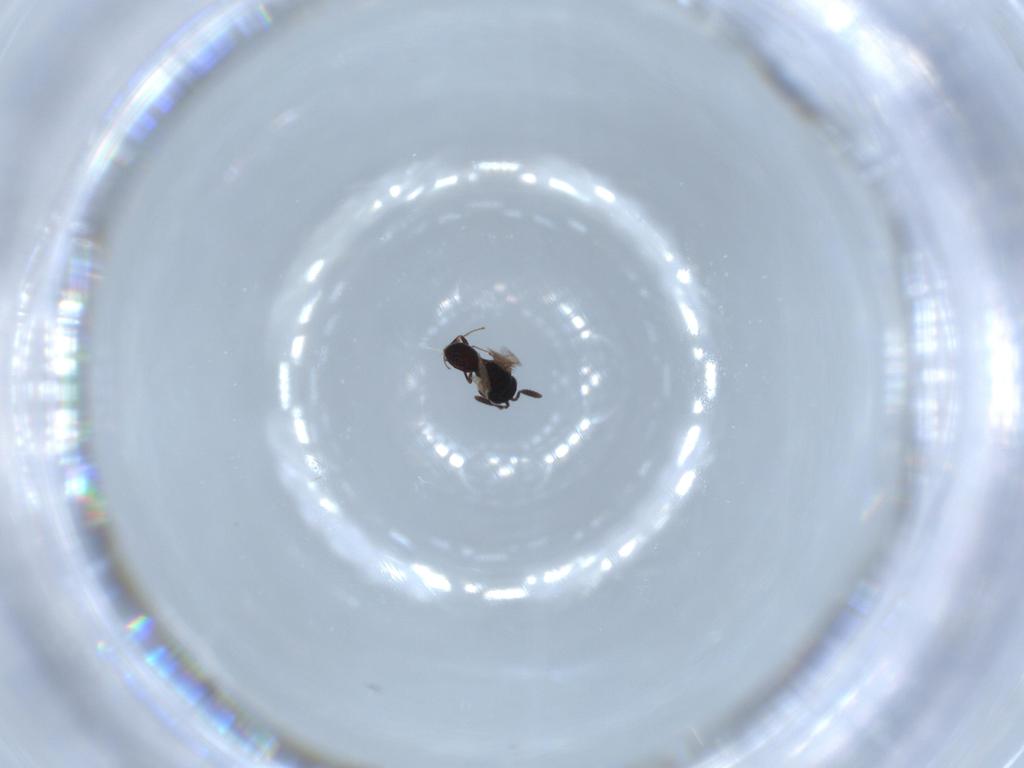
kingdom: Animalia
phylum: Arthropoda
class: Insecta
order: Hymenoptera
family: Scelionidae
